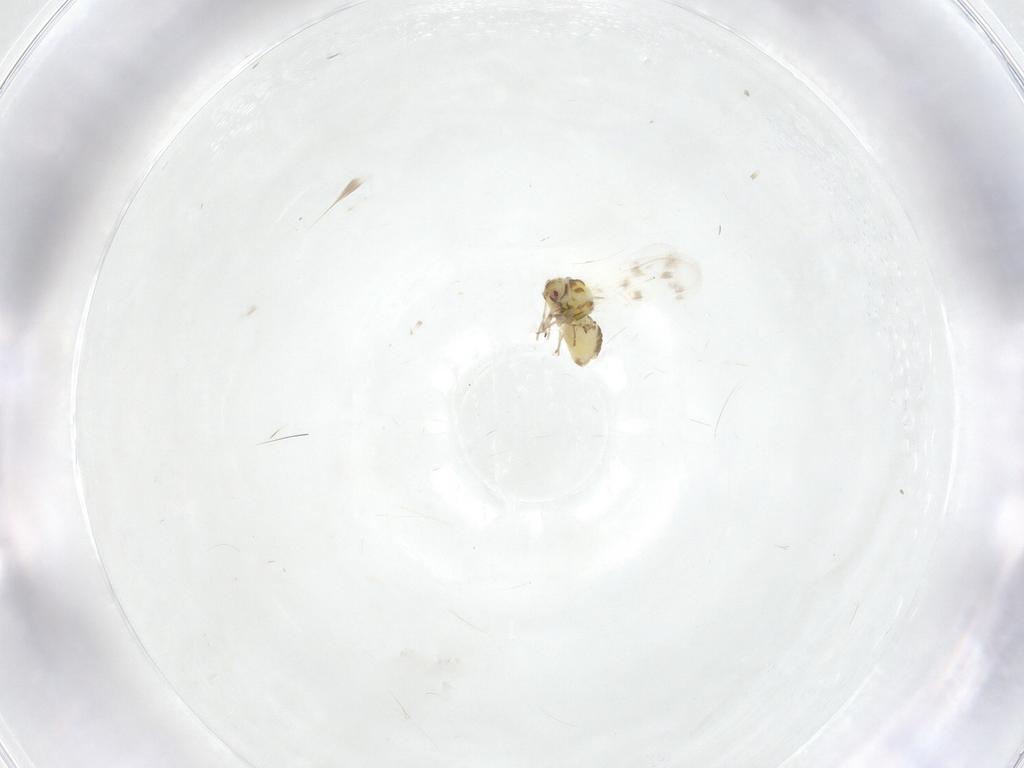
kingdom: Animalia
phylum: Arthropoda
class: Insecta
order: Hemiptera
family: Aleyrodidae
